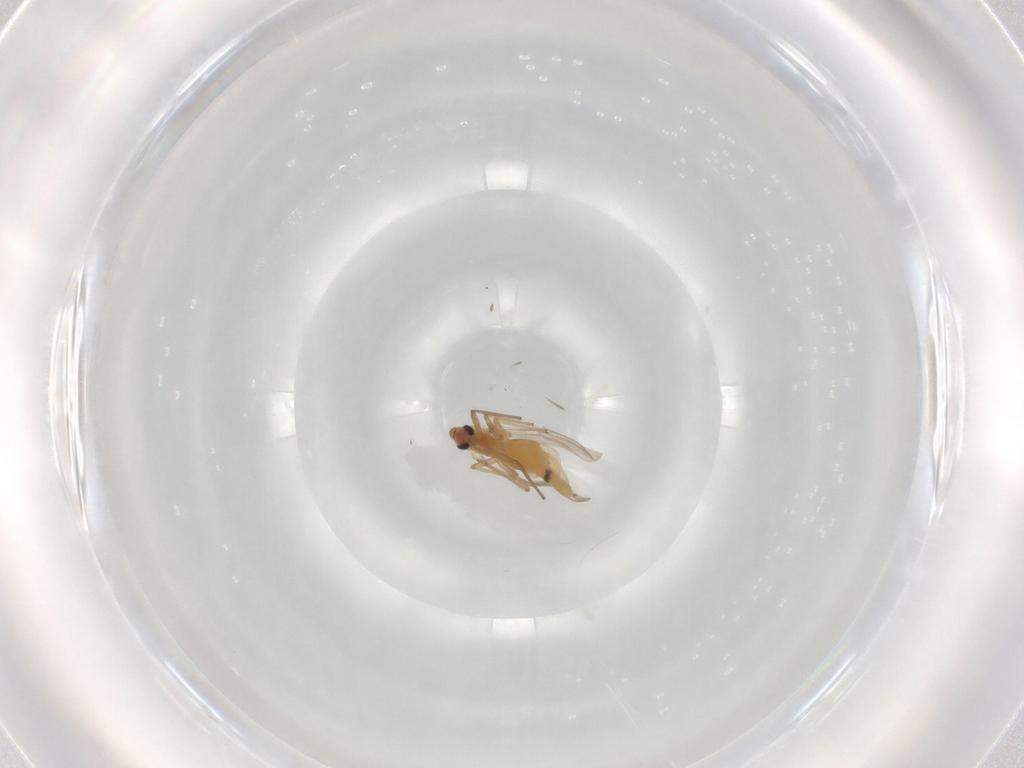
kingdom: Animalia
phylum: Arthropoda
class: Insecta
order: Diptera
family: Chironomidae
